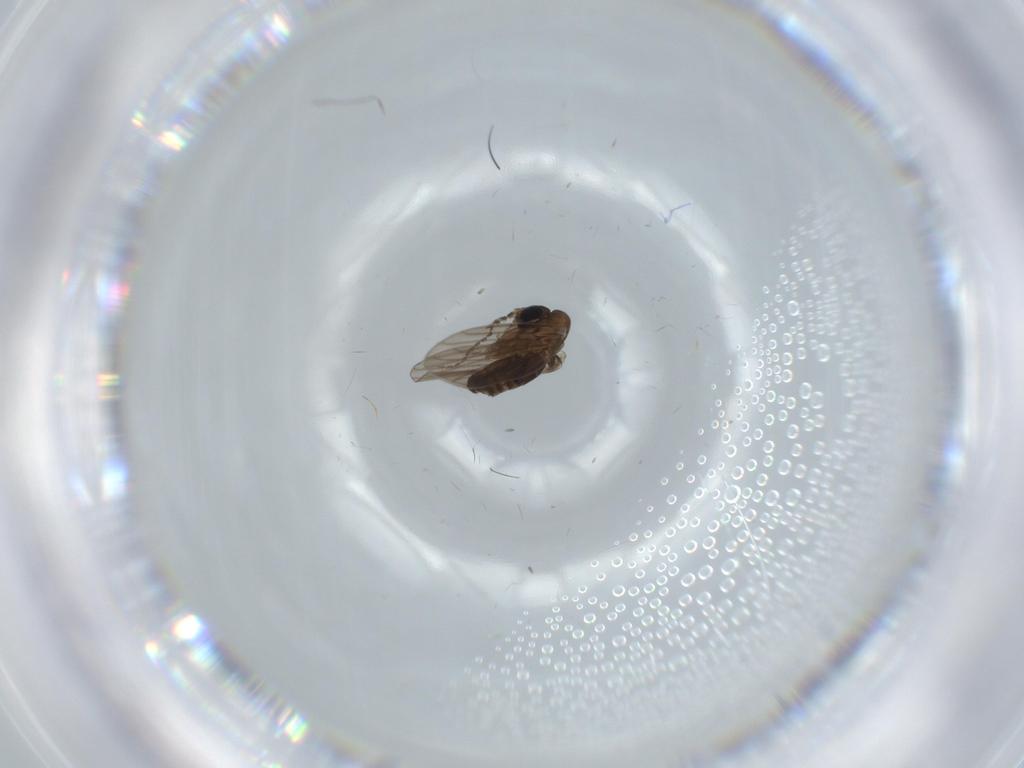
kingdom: Animalia
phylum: Arthropoda
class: Insecta
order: Diptera
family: Psychodidae
